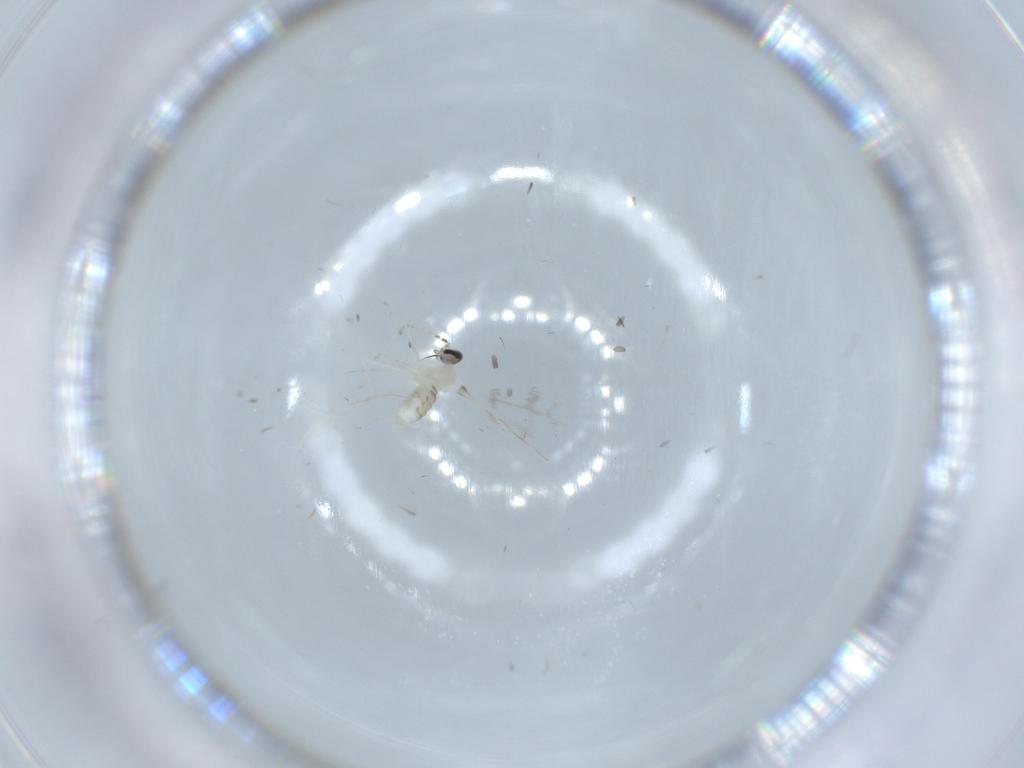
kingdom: Animalia
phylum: Arthropoda
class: Insecta
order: Diptera
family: Cecidomyiidae
